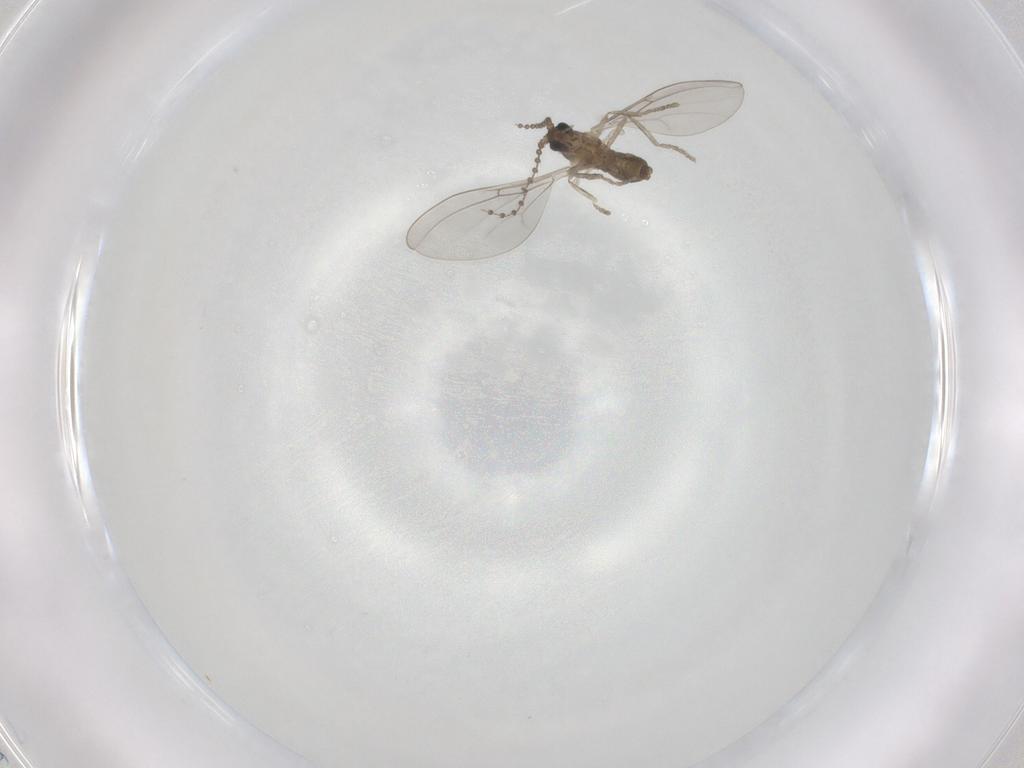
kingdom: Animalia
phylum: Arthropoda
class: Insecta
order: Diptera
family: Cecidomyiidae
